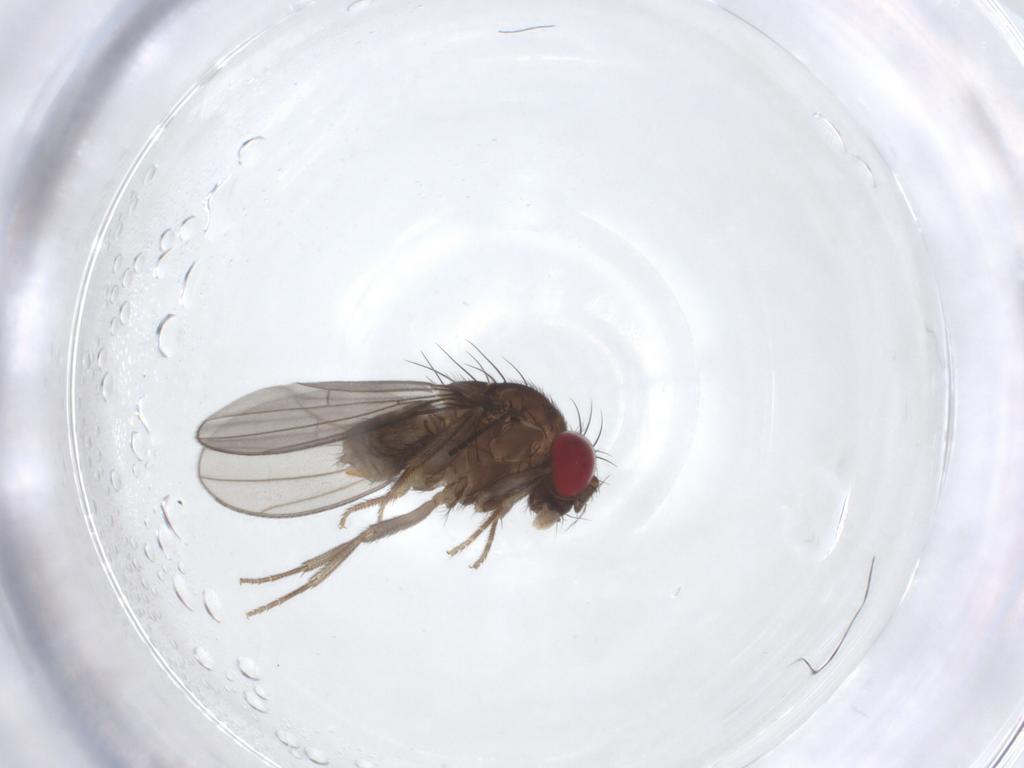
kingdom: Animalia
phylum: Arthropoda
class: Insecta
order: Diptera
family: Drosophilidae
